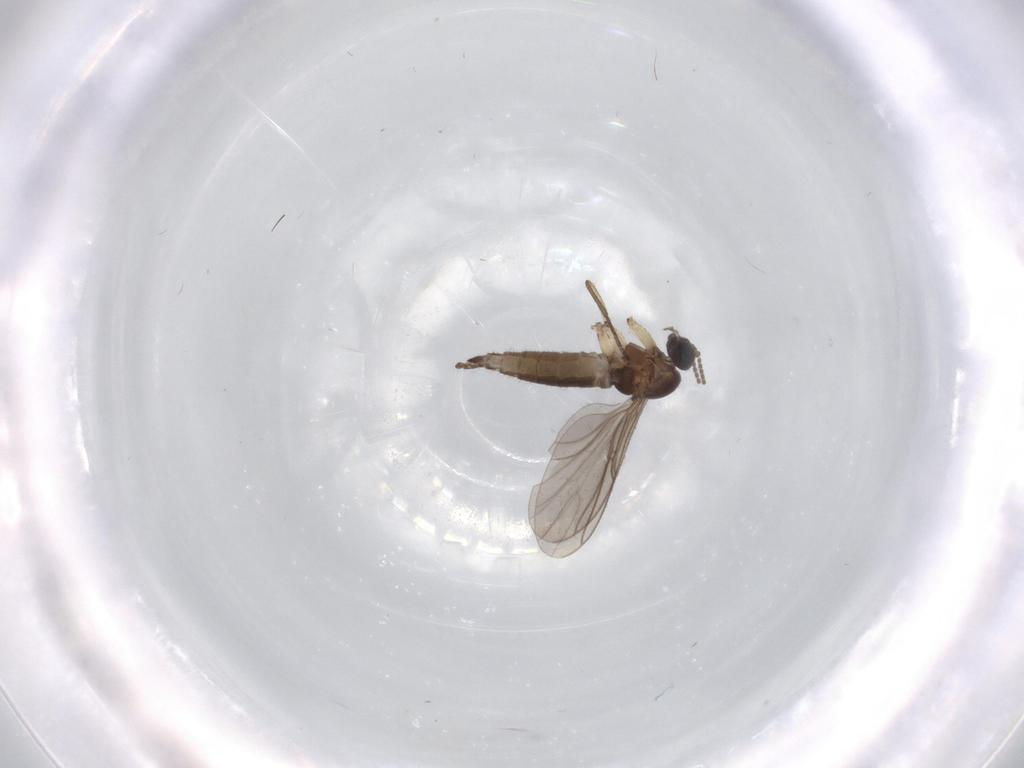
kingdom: Animalia
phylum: Arthropoda
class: Insecta
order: Diptera
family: Sciaridae
